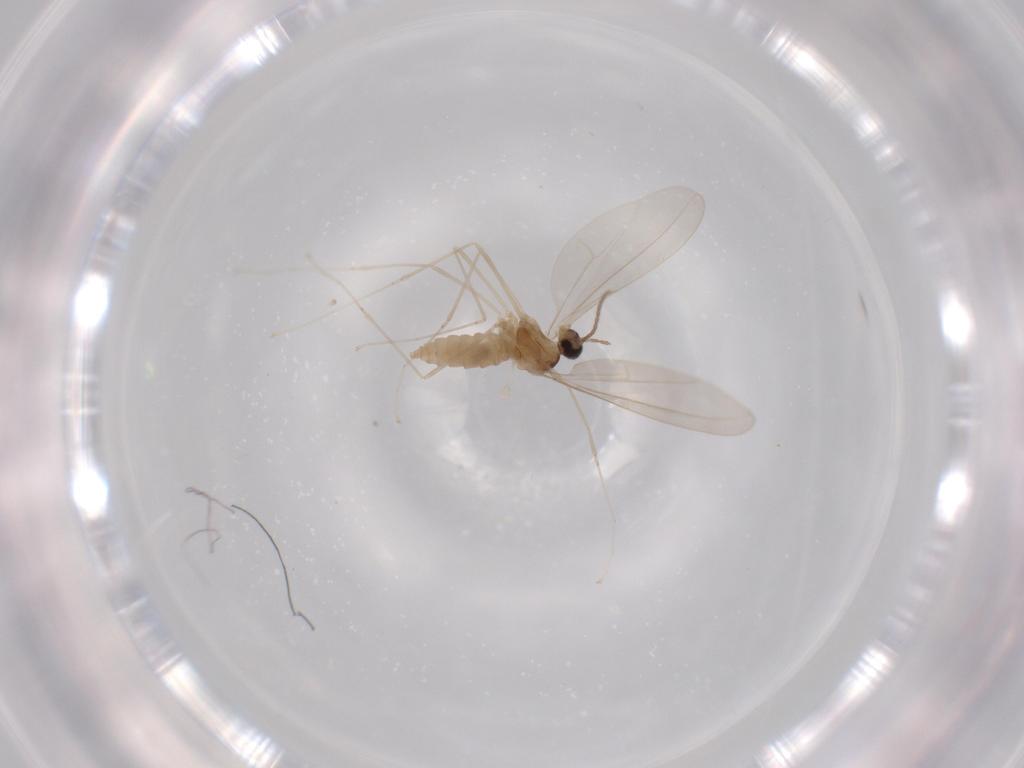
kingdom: Animalia
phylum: Arthropoda
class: Insecta
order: Diptera
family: Cecidomyiidae
